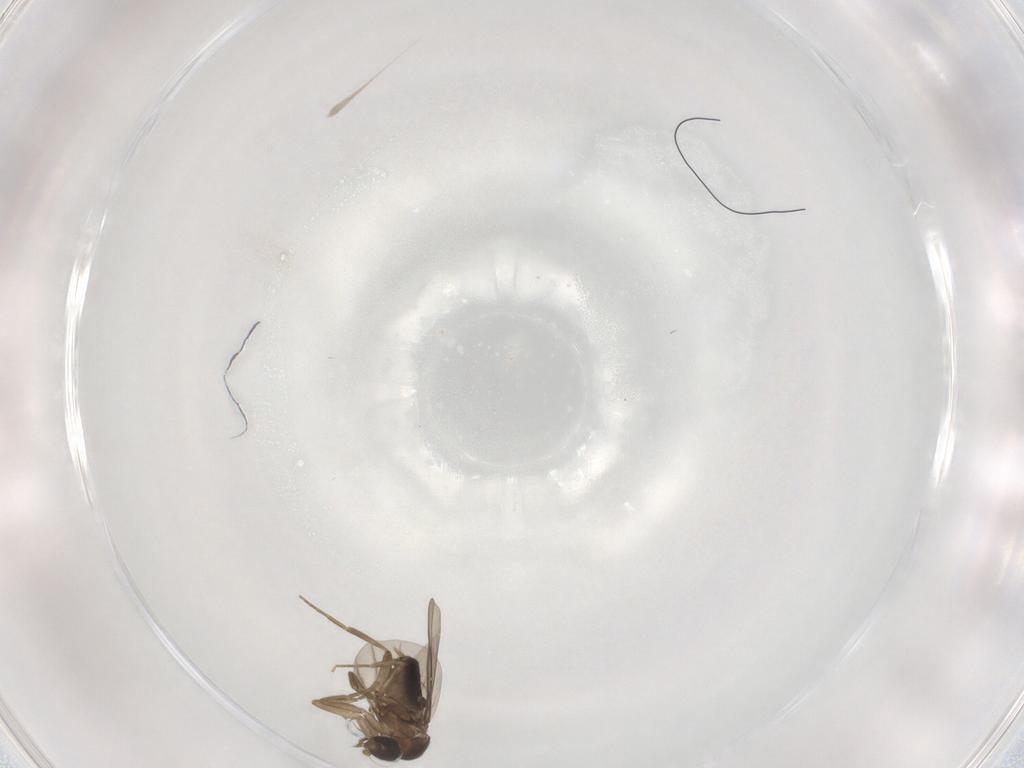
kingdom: Animalia
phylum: Arthropoda
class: Insecta
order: Diptera
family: Phoridae
